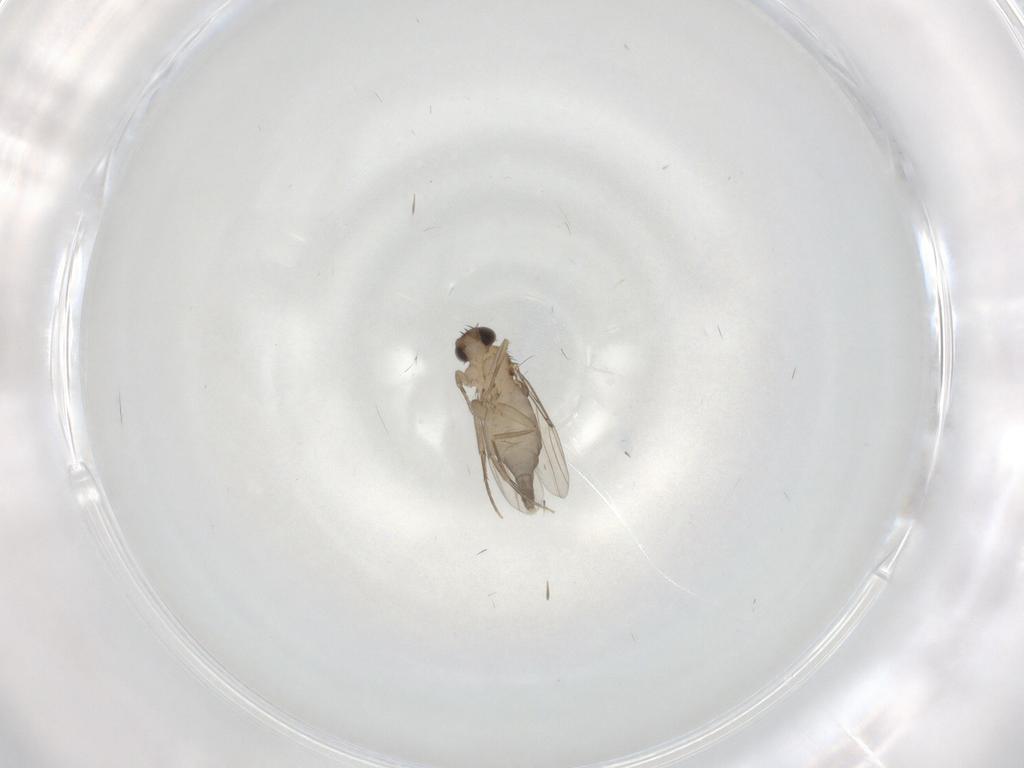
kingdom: Animalia
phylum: Arthropoda
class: Insecta
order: Diptera
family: Phoridae
